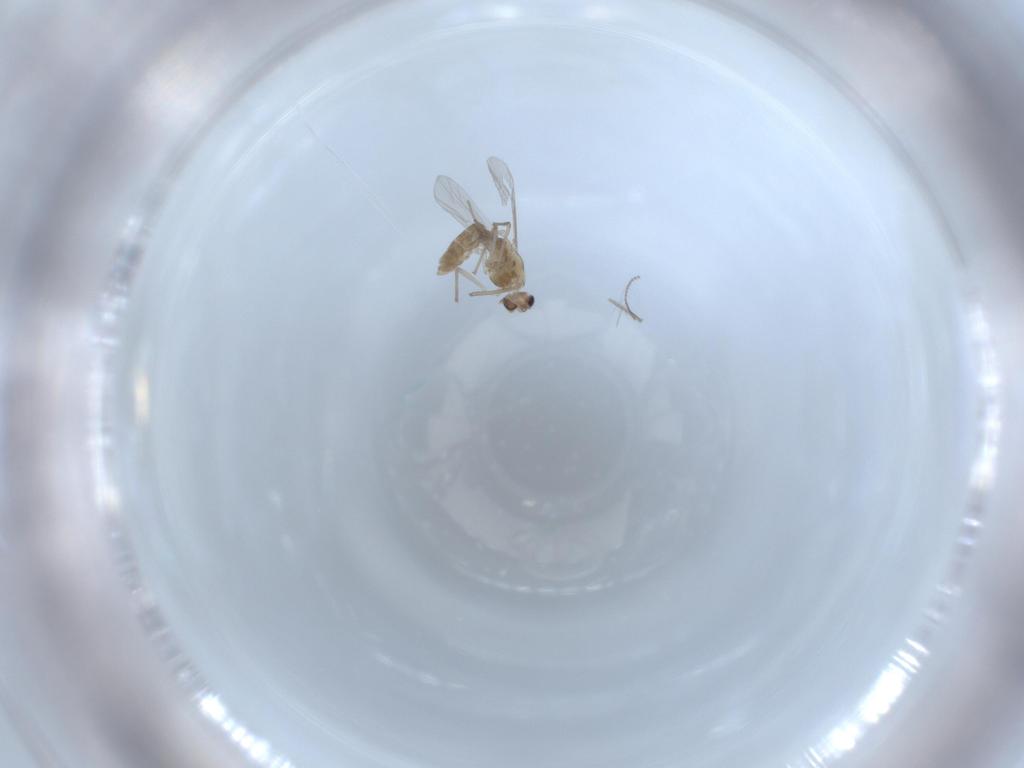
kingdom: Animalia
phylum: Arthropoda
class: Insecta
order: Diptera
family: Chironomidae
